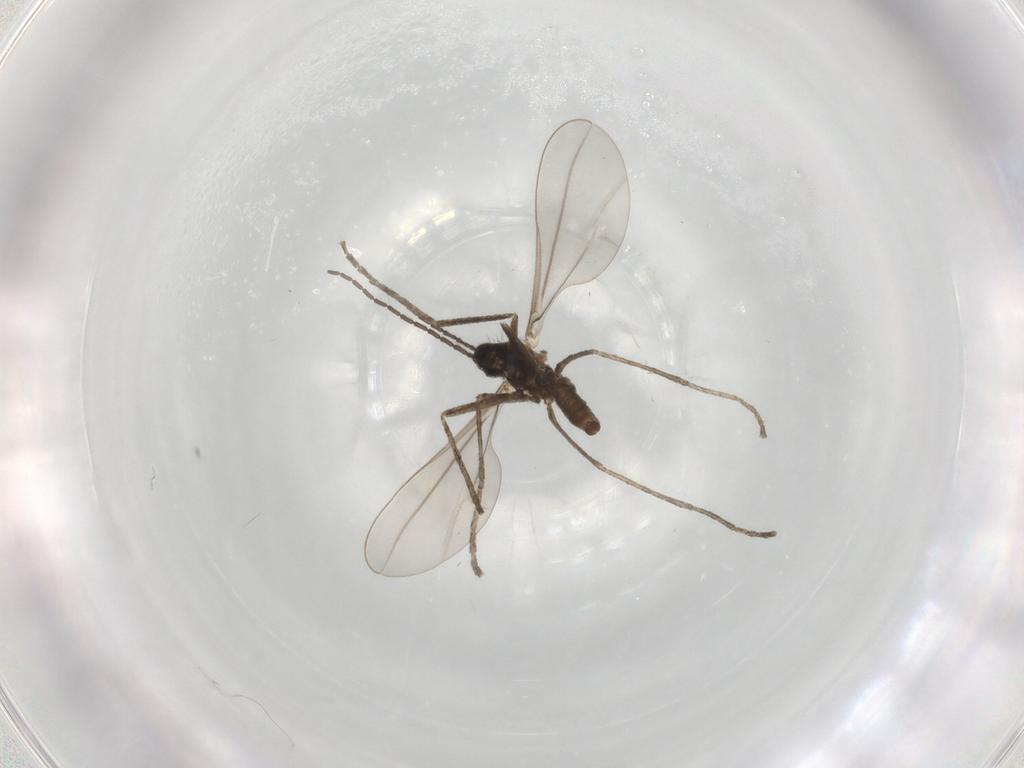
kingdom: Animalia
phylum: Arthropoda
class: Insecta
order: Diptera
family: Cecidomyiidae
